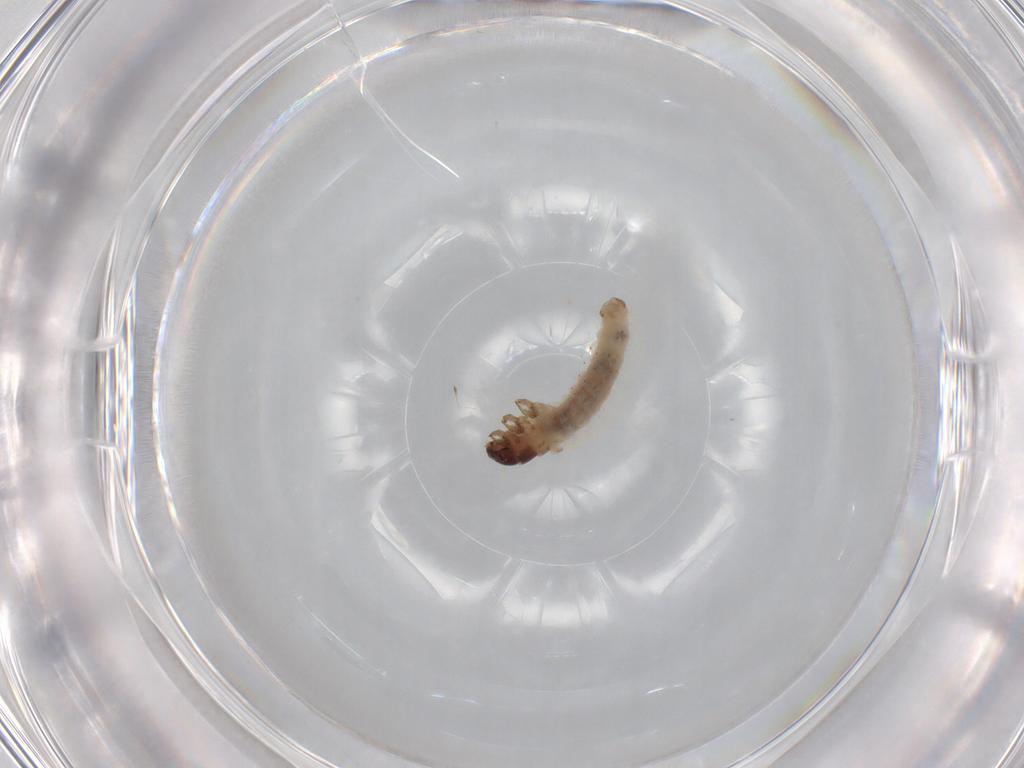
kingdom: Animalia
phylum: Arthropoda
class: Insecta
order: Lepidoptera
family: Psychidae
